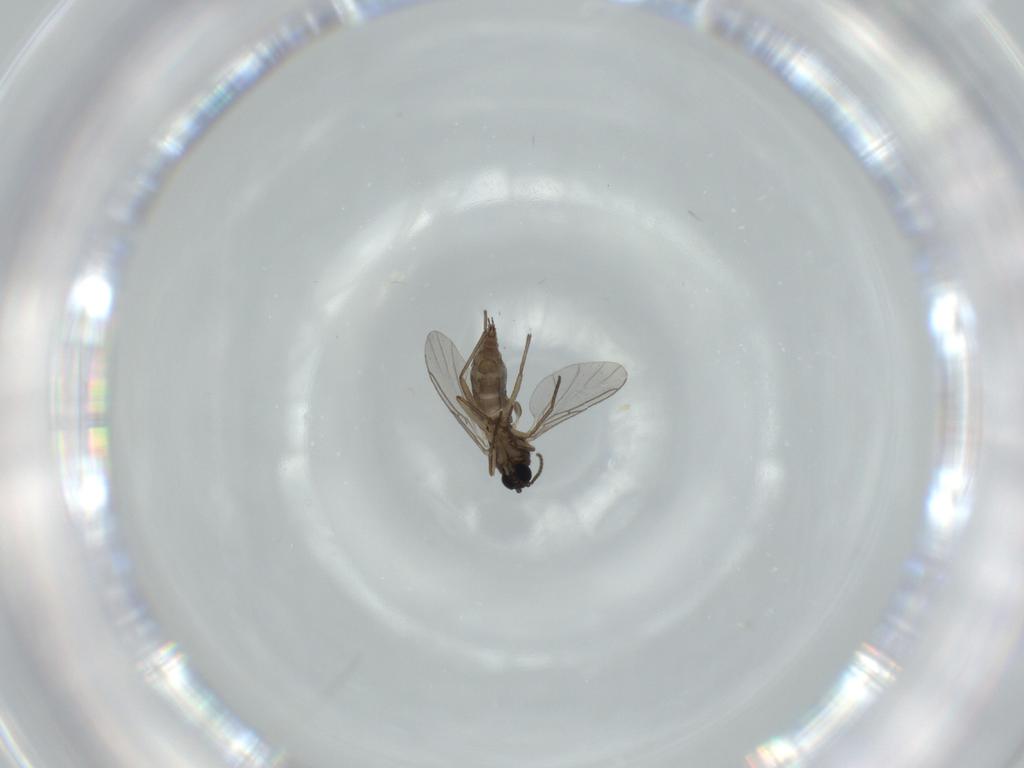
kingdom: Animalia
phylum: Arthropoda
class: Insecta
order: Diptera
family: Sciaridae
